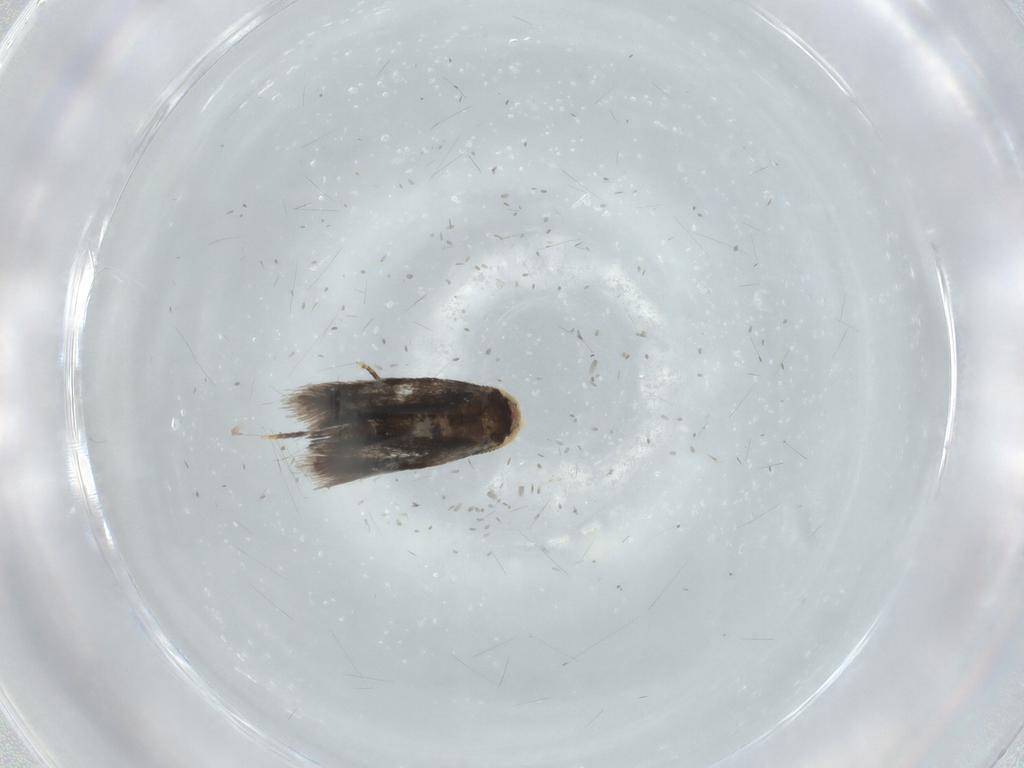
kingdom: Animalia
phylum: Arthropoda
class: Insecta
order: Lepidoptera
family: Nepticulidae
